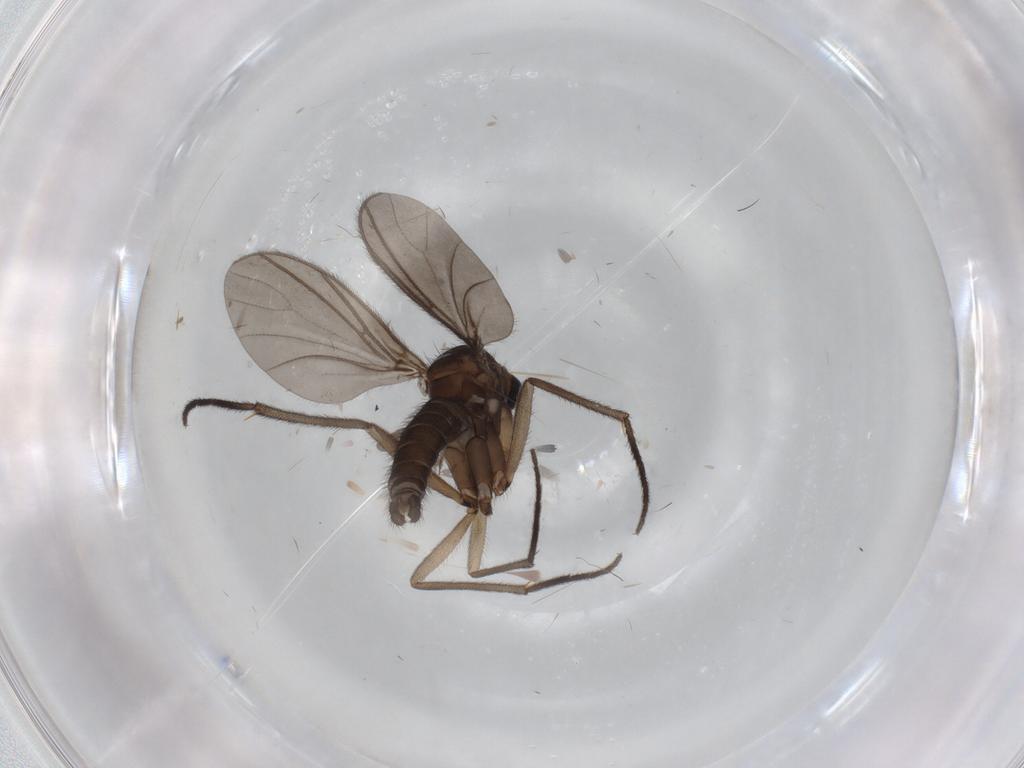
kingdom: Animalia
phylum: Arthropoda
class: Insecta
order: Diptera
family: Sciaridae
